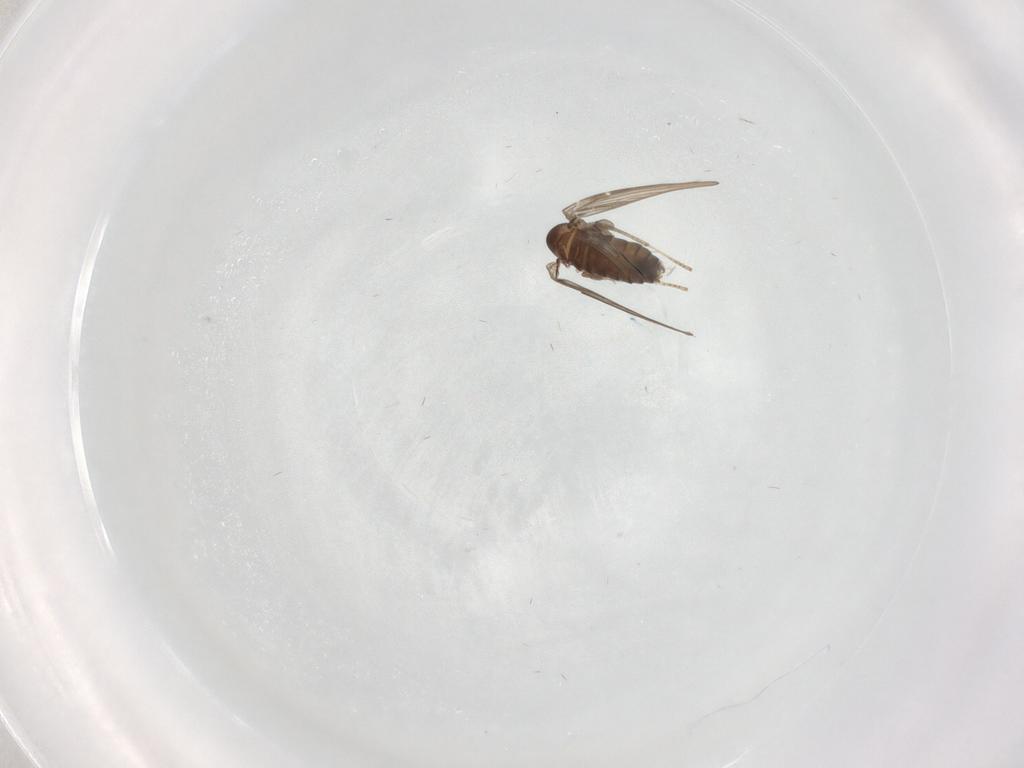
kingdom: Animalia
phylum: Arthropoda
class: Insecta
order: Diptera
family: Psychodidae
